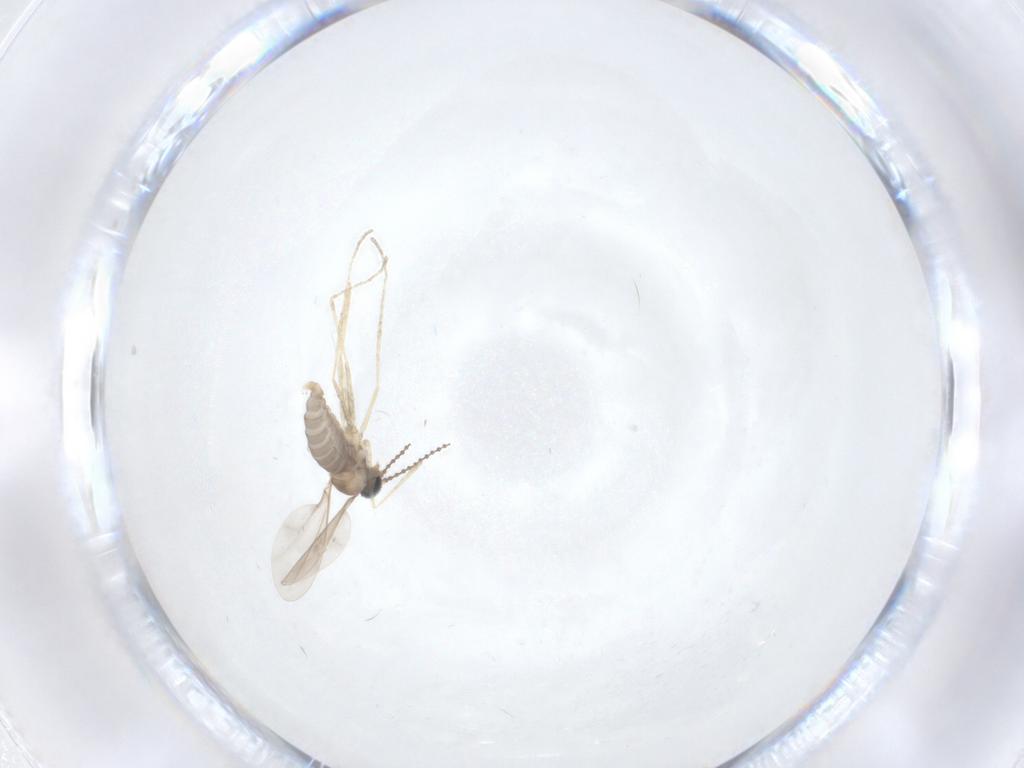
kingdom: Animalia
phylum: Arthropoda
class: Insecta
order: Diptera
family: Cecidomyiidae
